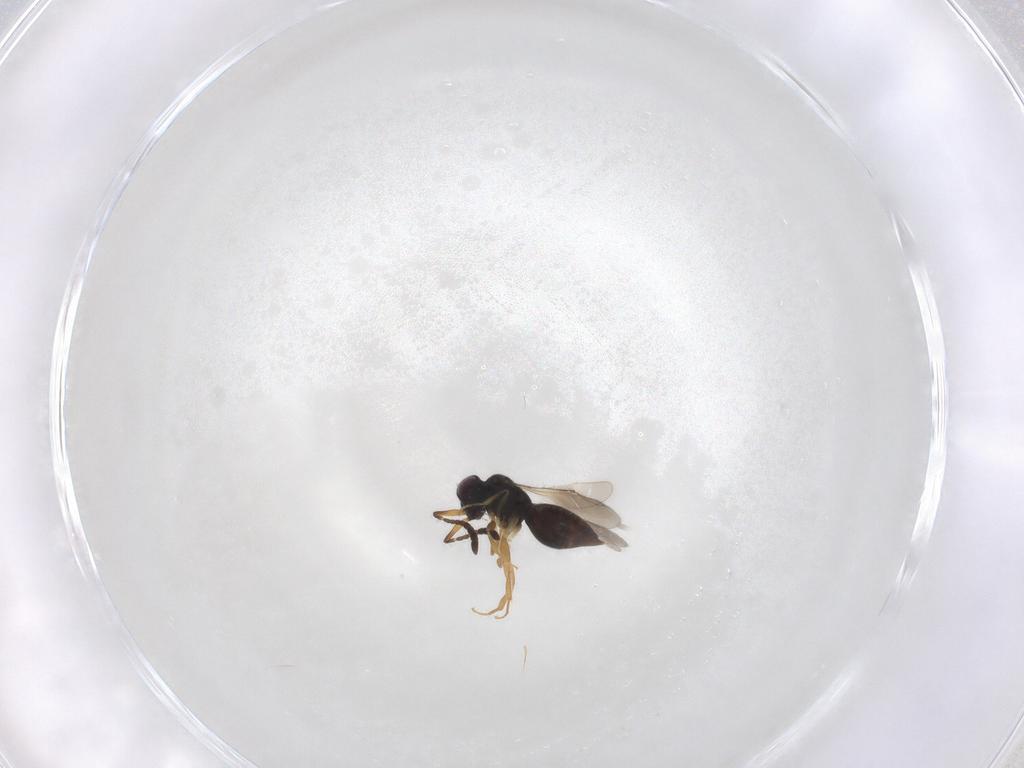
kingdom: Animalia
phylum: Arthropoda
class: Insecta
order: Hymenoptera
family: Ceraphronidae
